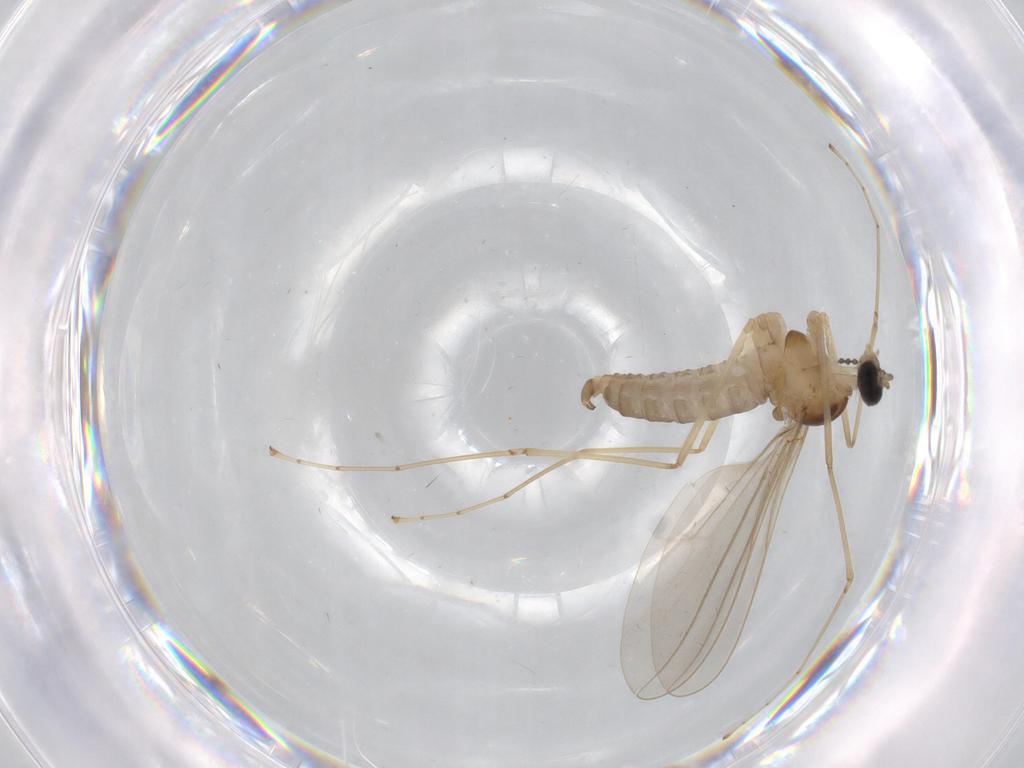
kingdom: Animalia
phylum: Arthropoda
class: Insecta
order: Diptera
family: Cecidomyiidae
